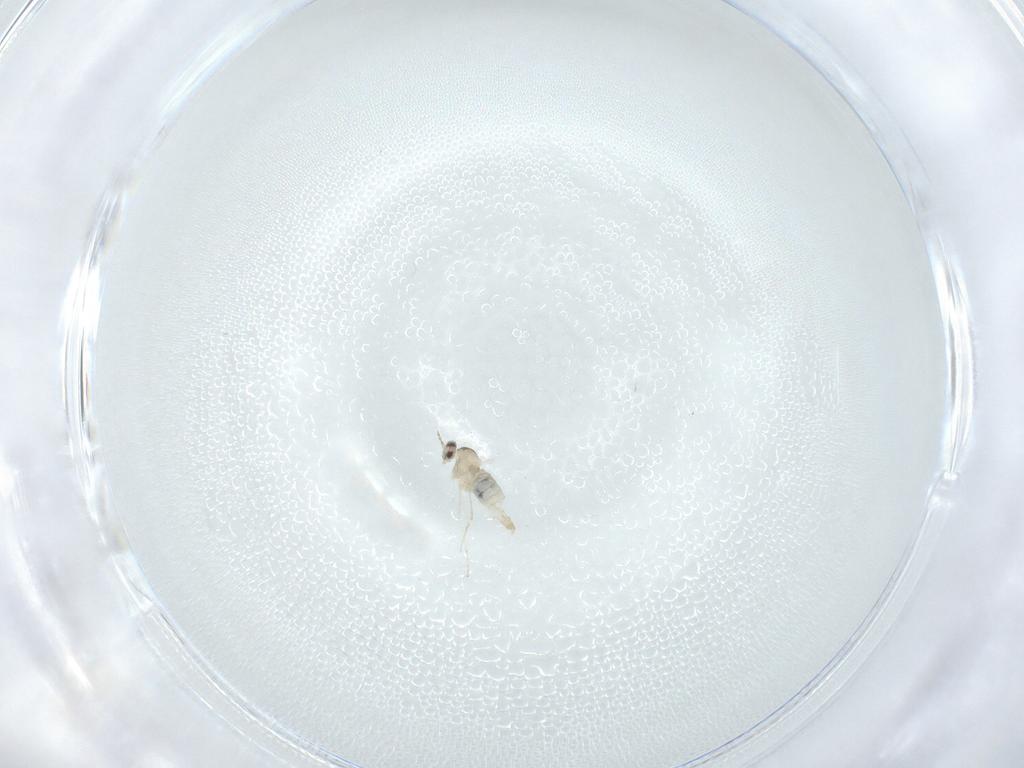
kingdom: Animalia
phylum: Arthropoda
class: Insecta
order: Diptera
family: Cecidomyiidae
